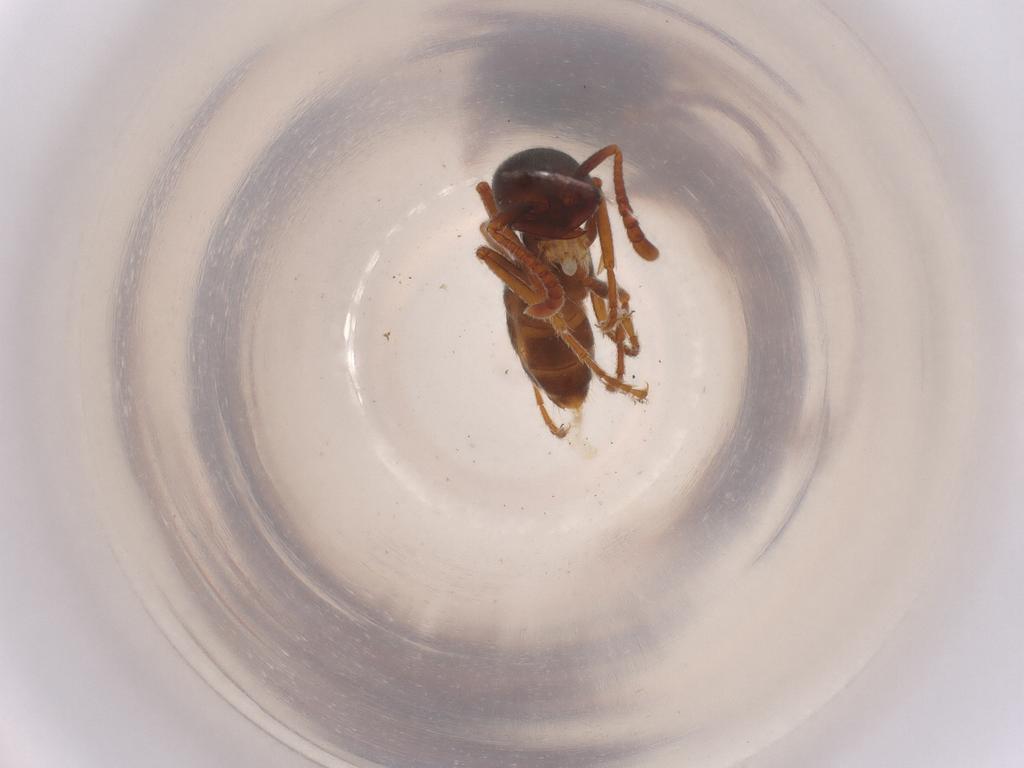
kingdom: Animalia
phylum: Arthropoda
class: Insecta
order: Hymenoptera
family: Formicidae
